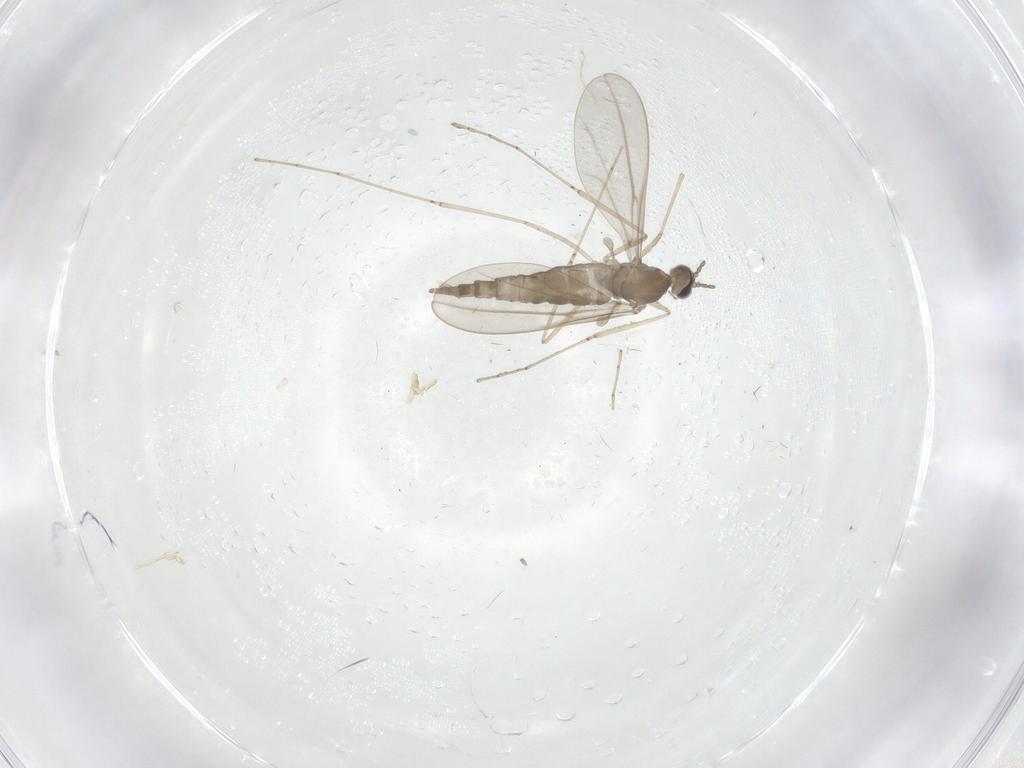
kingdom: Animalia
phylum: Arthropoda
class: Insecta
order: Diptera
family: Cecidomyiidae
